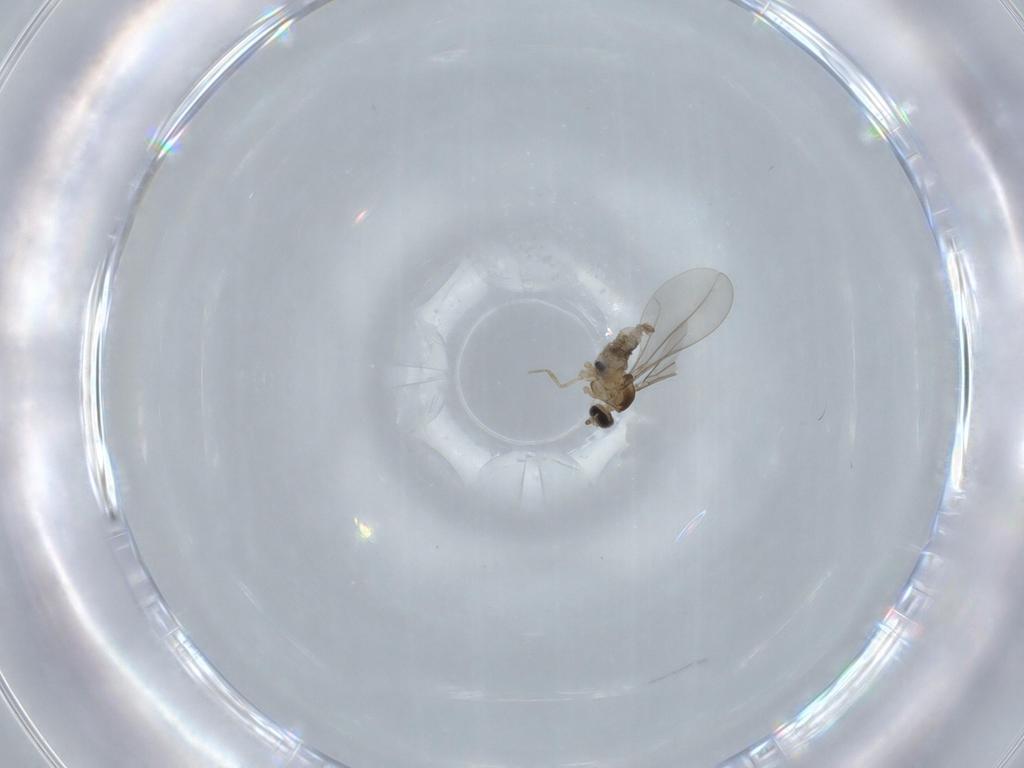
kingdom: Animalia
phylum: Arthropoda
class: Insecta
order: Diptera
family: Cecidomyiidae
